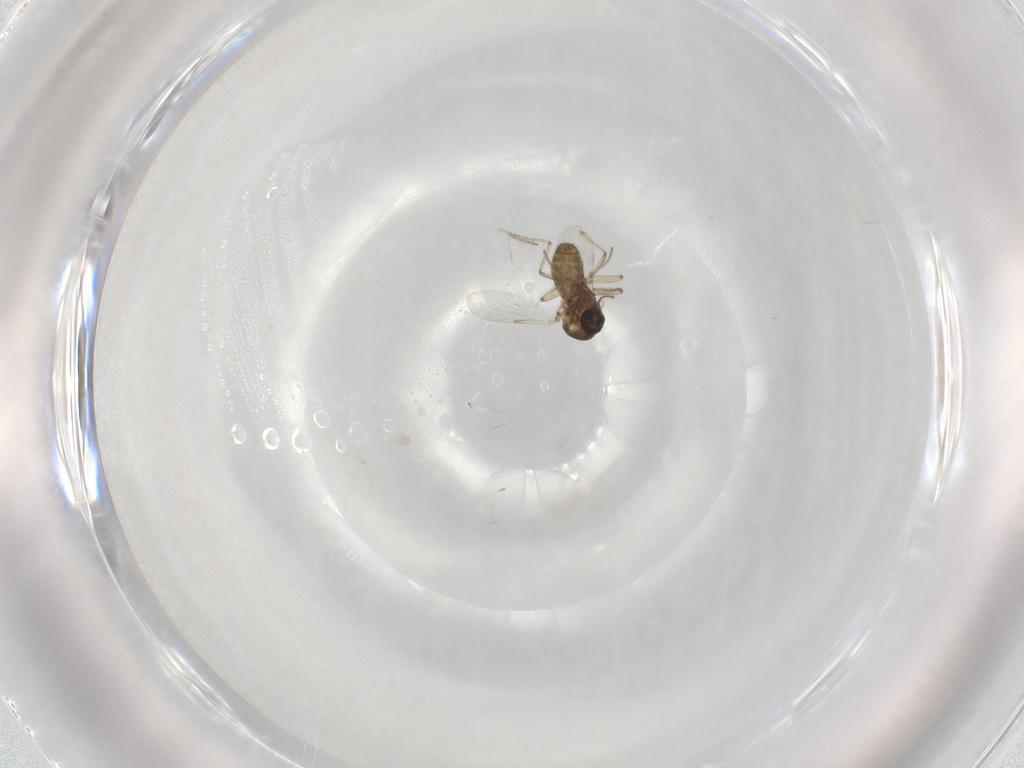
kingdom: Animalia
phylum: Arthropoda
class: Insecta
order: Diptera
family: Ceratopogonidae
